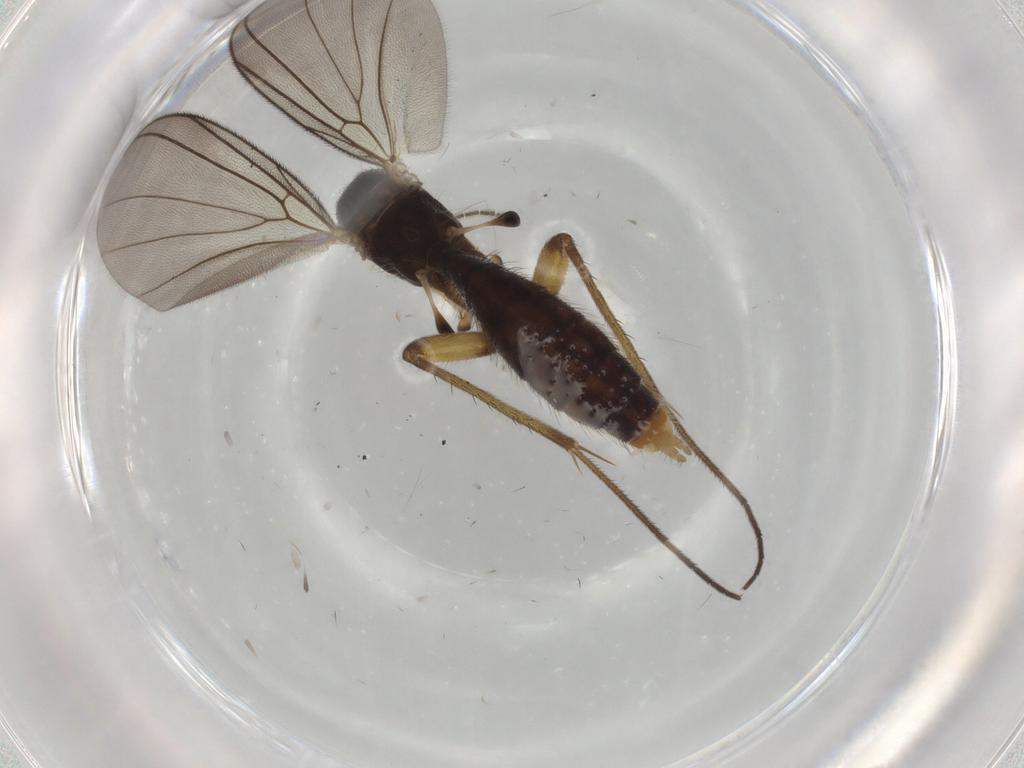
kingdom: Animalia
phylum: Arthropoda
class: Insecta
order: Diptera
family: Mycetophilidae
